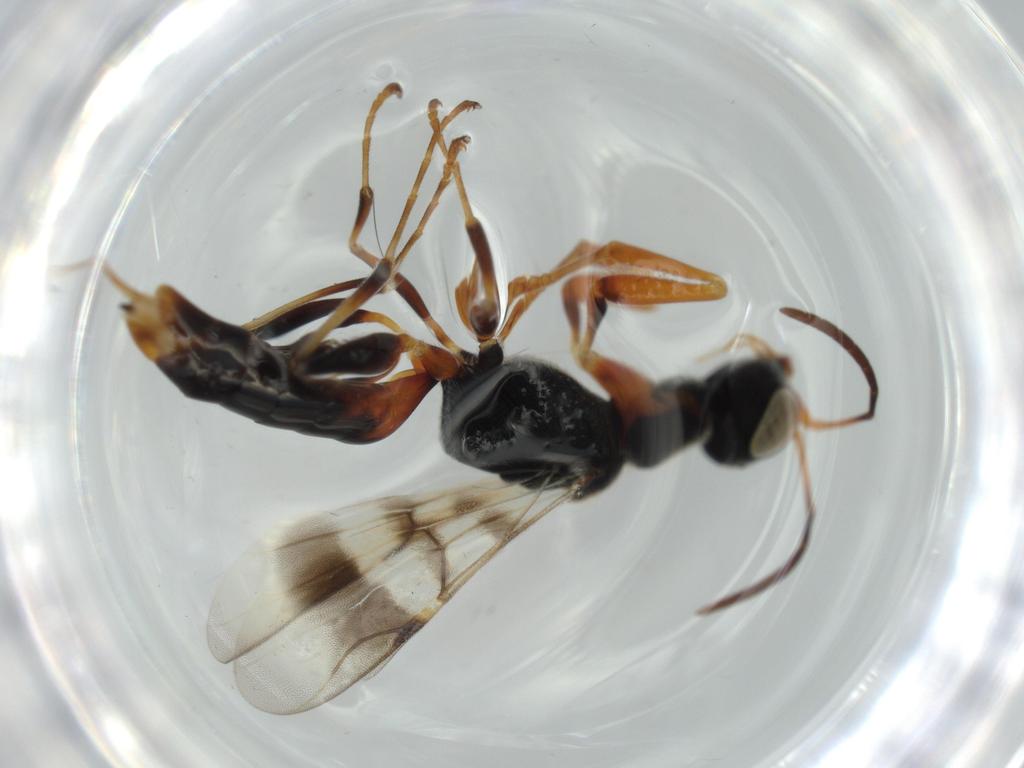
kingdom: Animalia
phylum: Arthropoda
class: Insecta
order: Hymenoptera
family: Dryinidae
